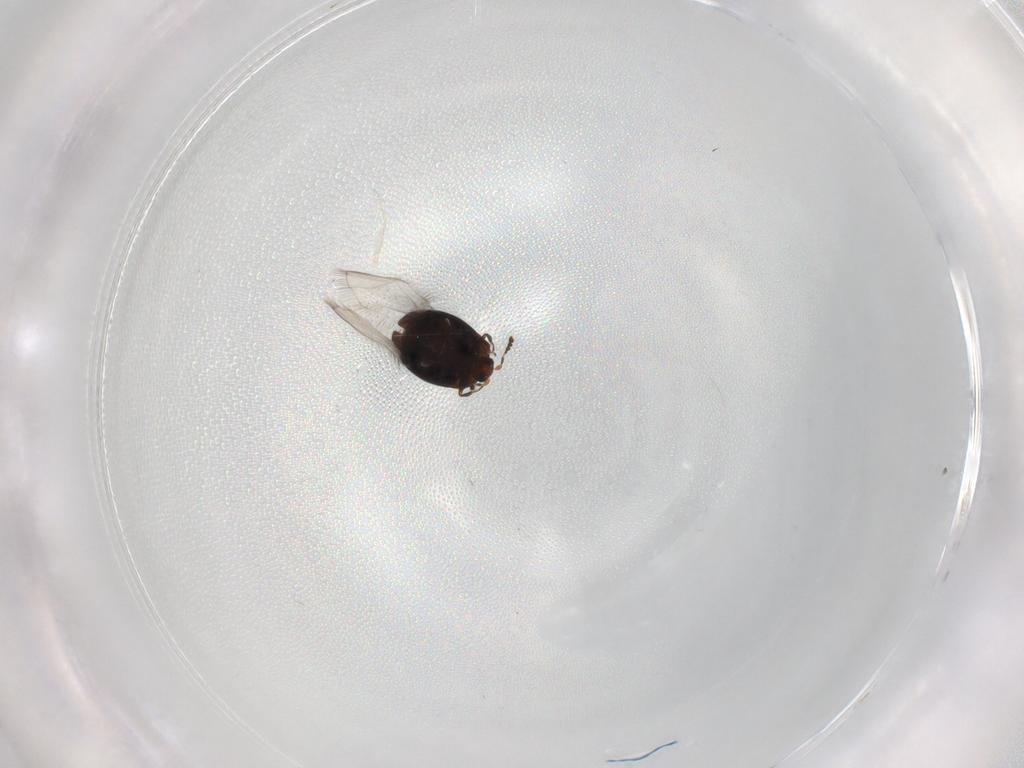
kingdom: Animalia
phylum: Arthropoda
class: Insecta
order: Coleoptera
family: Corylophidae
